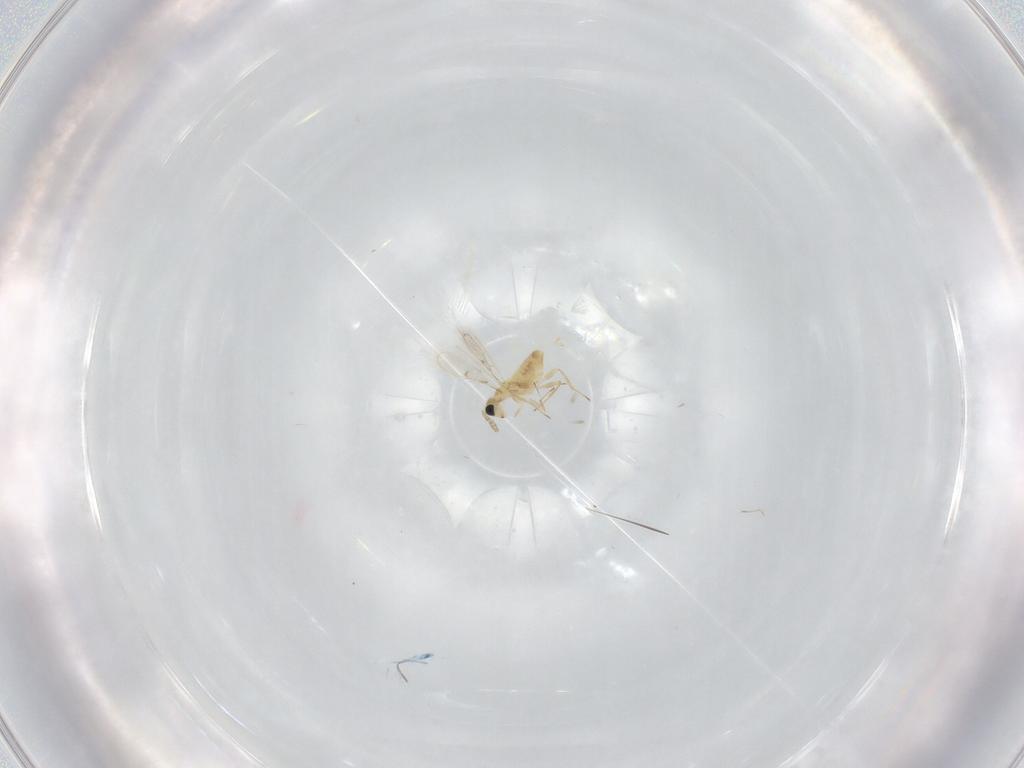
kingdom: Animalia
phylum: Arthropoda
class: Insecta
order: Hymenoptera
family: Trichogrammatidae
